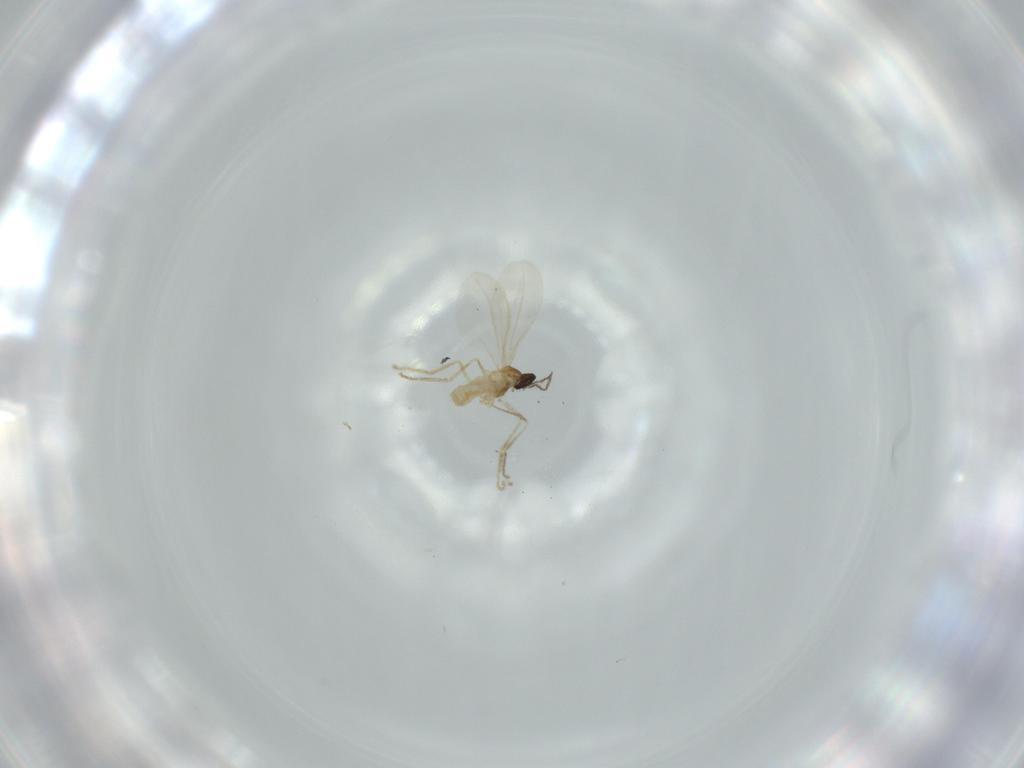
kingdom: Animalia
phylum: Arthropoda
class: Insecta
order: Diptera
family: Cecidomyiidae
